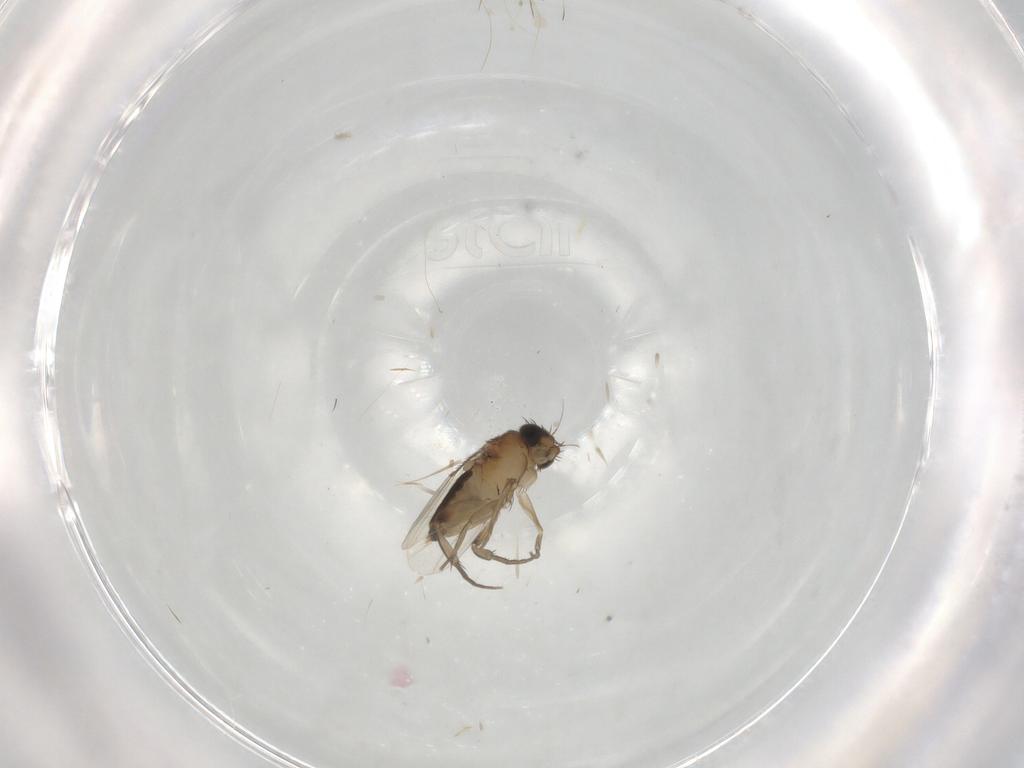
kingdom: Animalia
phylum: Arthropoda
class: Insecta
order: Diptera
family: Phoridae
